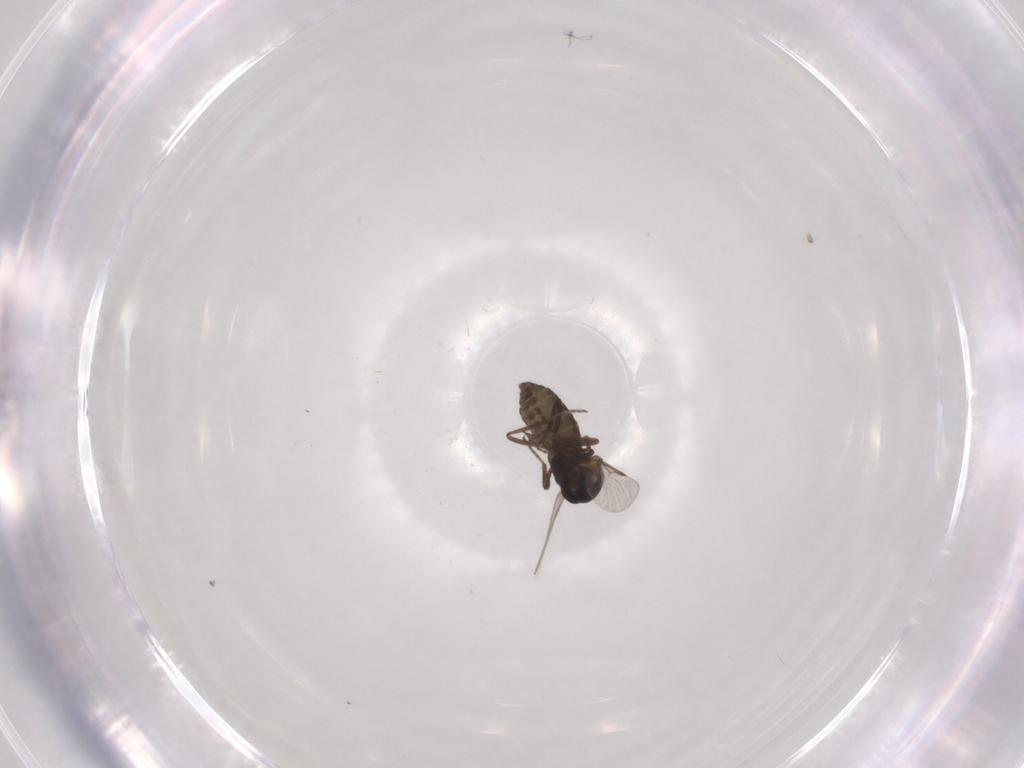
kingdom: Animalia
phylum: Arthropoda
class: Insecta
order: Diptera
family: Ceratopogonidae
